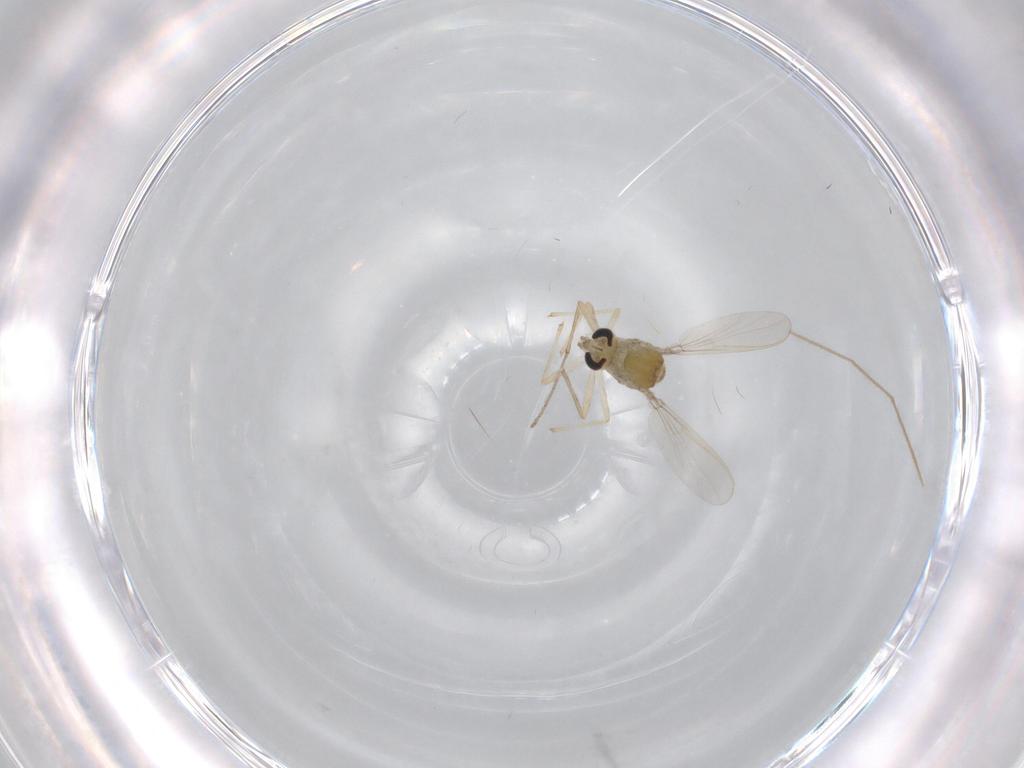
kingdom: Animalia
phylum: Arthropoda
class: Insecta
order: Diptera
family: Chironomidae
